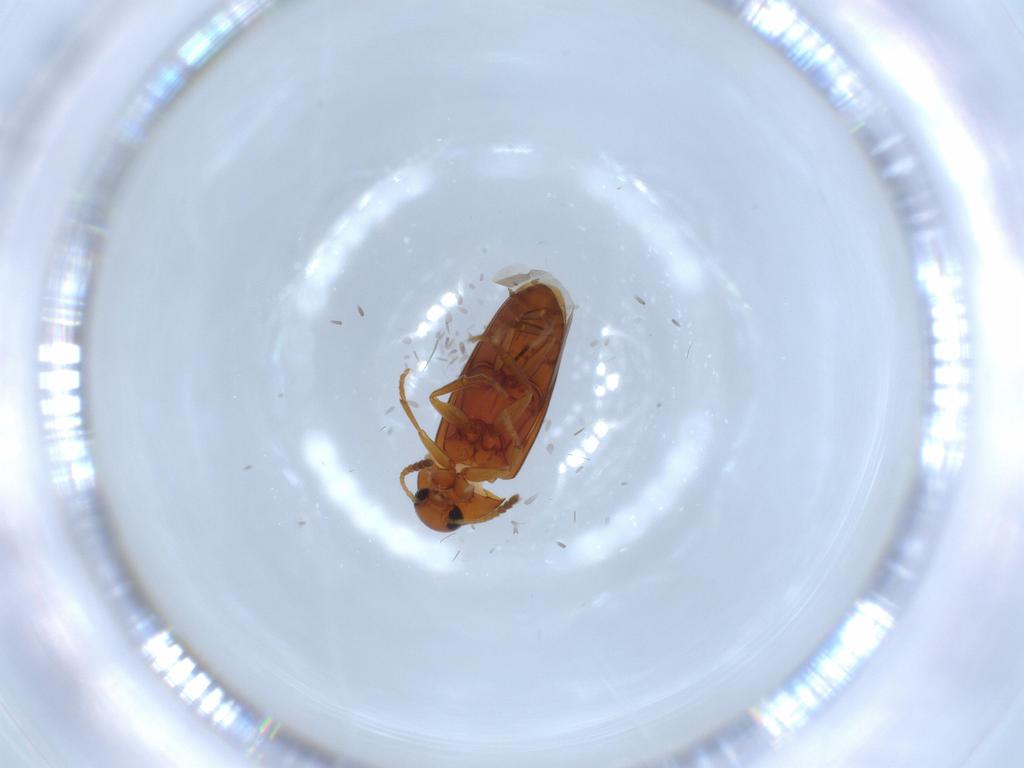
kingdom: Animalia
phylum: Arthropoda
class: Insecta
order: Coleoptera
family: Scraptiidae
